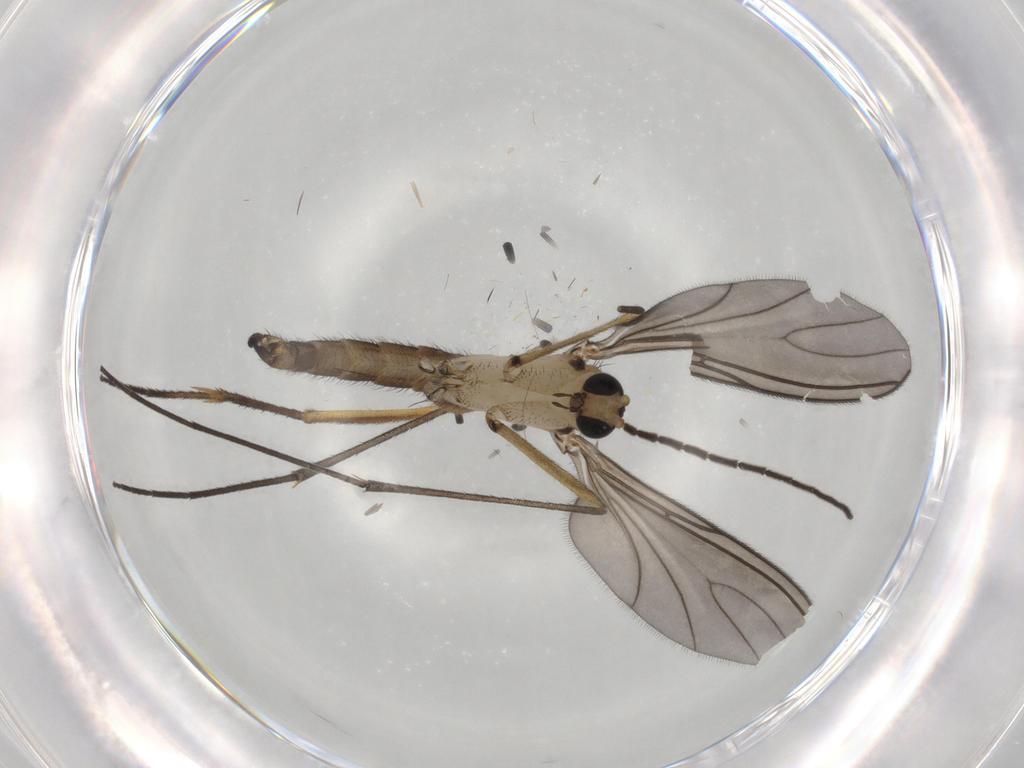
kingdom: Animalia
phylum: Arthropoda
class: Insecta
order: Diptera
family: Sciaridae
